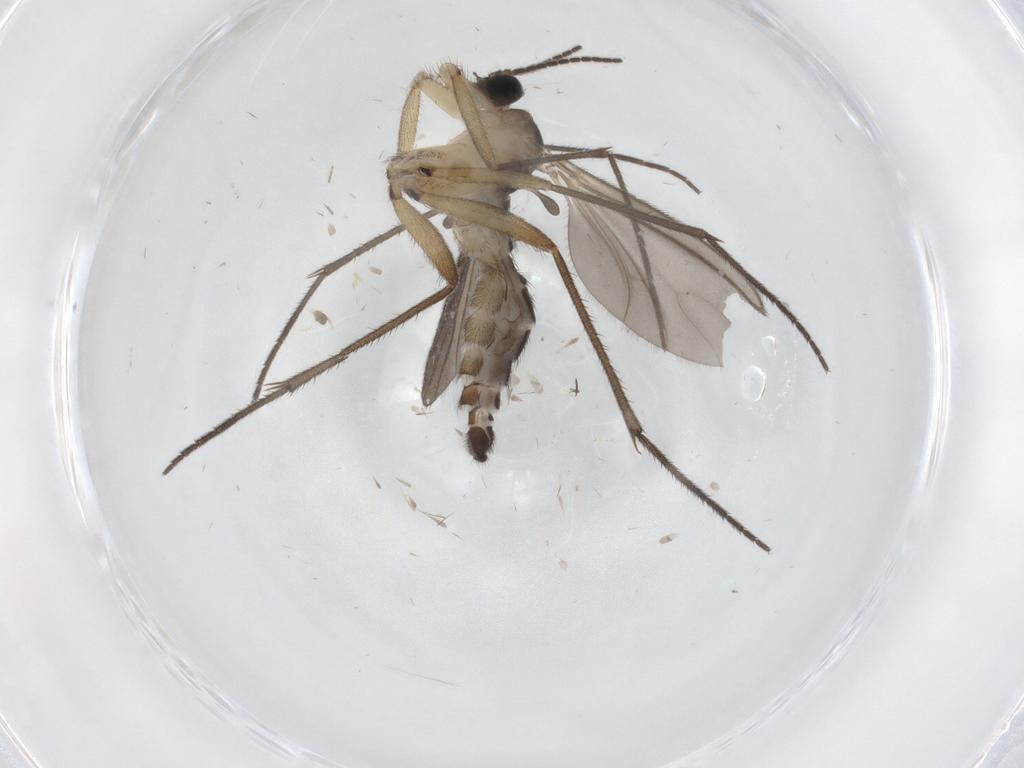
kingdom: Animalia
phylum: Arthropoda
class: Insecta
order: Diptera
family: Sciaridae
